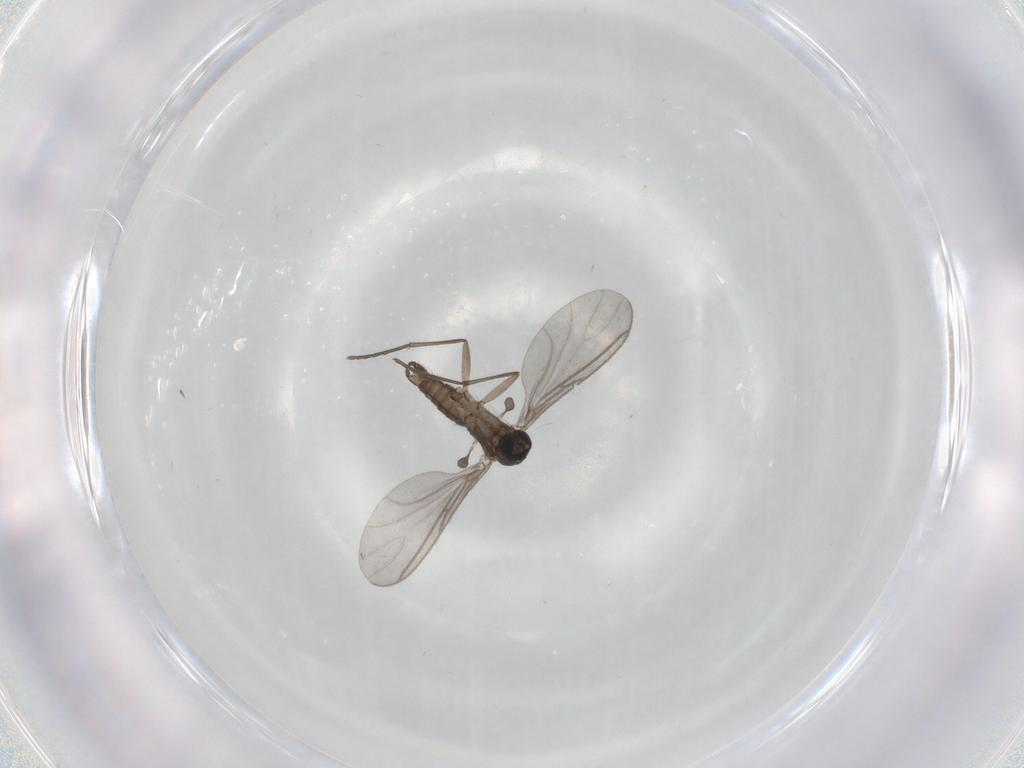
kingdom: Animalia
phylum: Arthropoda
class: Insecta
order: Diptera
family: Sciaridae
